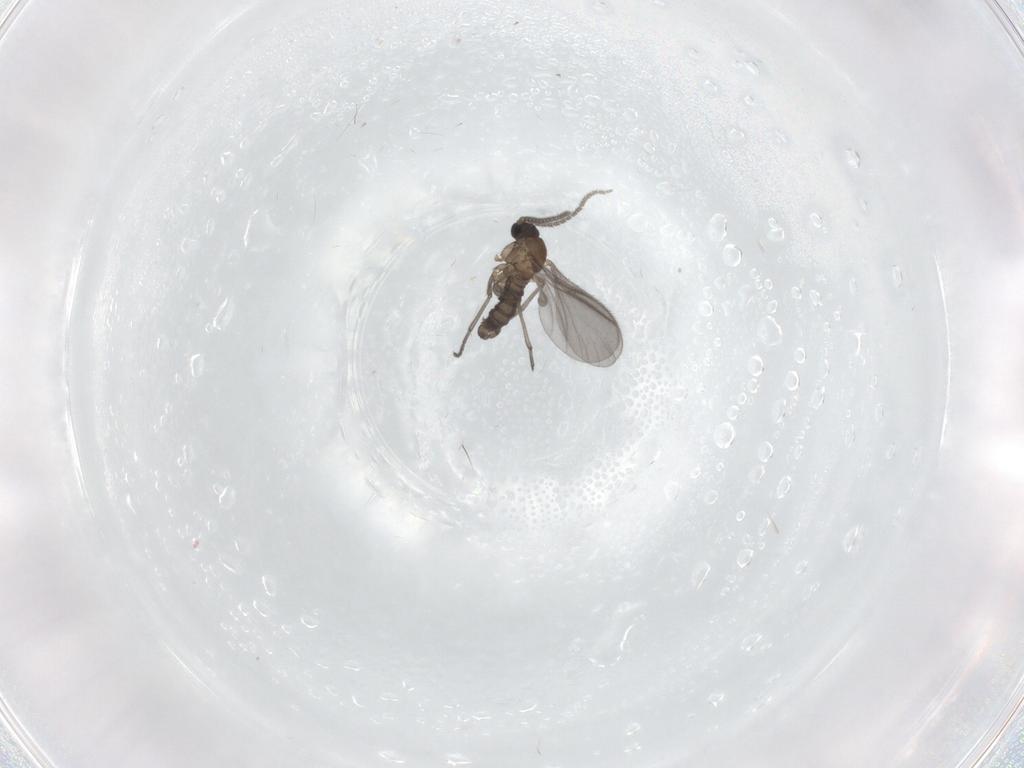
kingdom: Animalia
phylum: Arthropoda
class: Insecta
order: Diptera
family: Sciaridae
